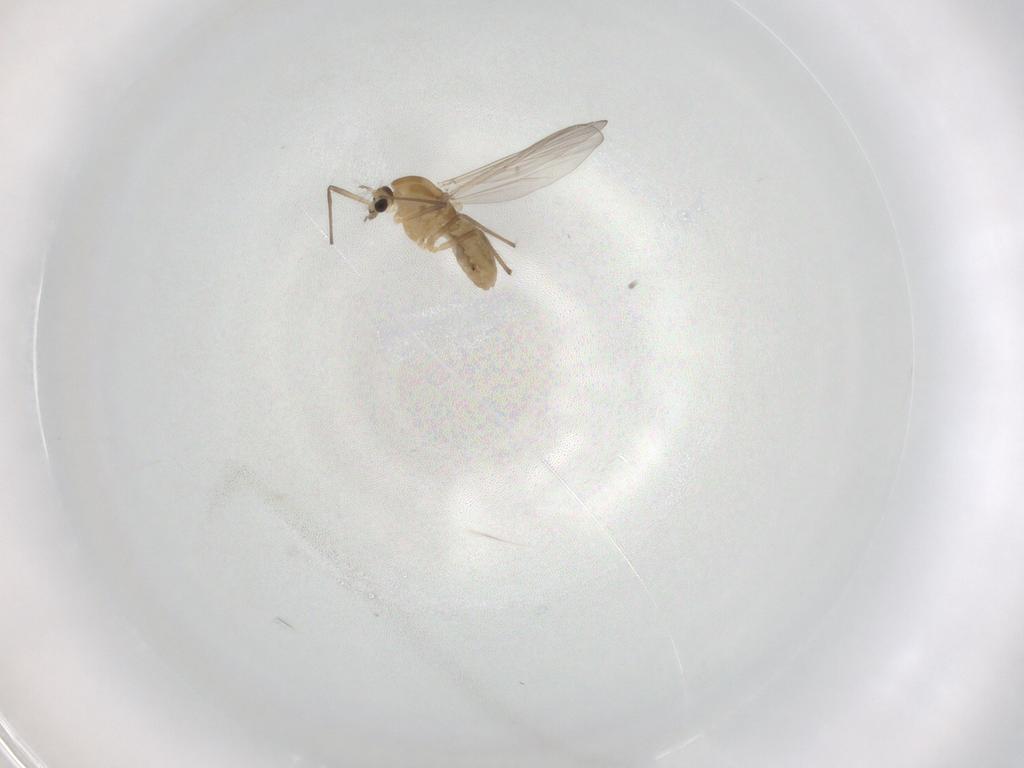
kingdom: Animalia
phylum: Arthropoda
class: Insecta
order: Diptera
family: Chironomidae
